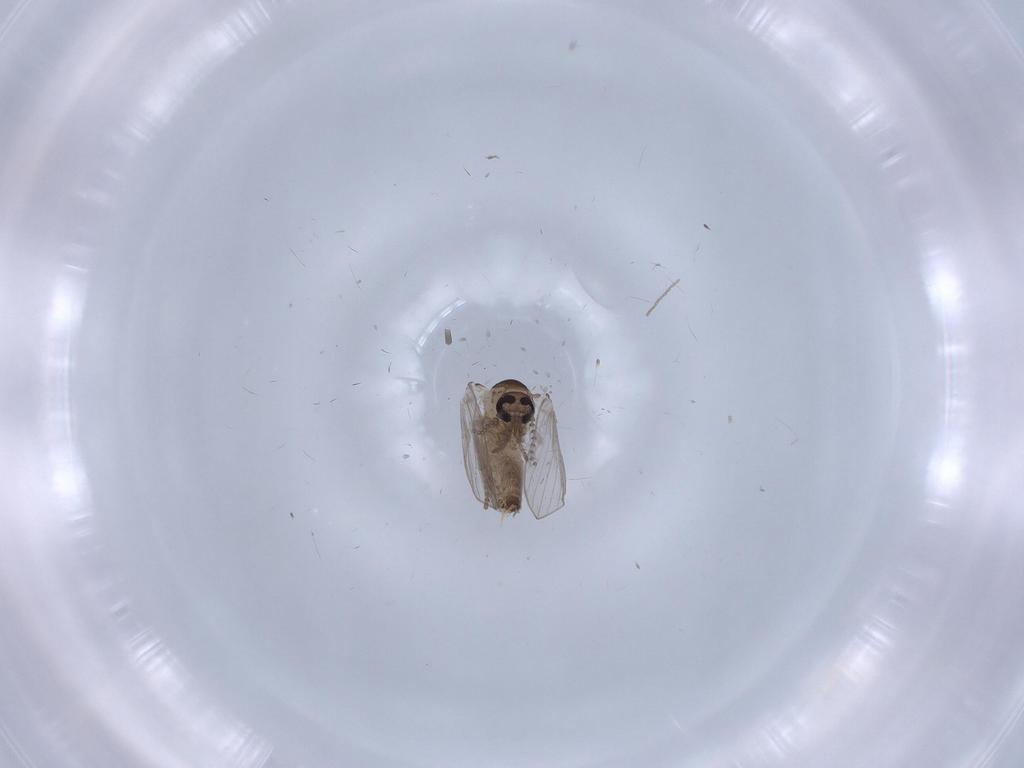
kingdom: Animalia
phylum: Arthropoda
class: Insecta
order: Diptera
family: Psychodidae
